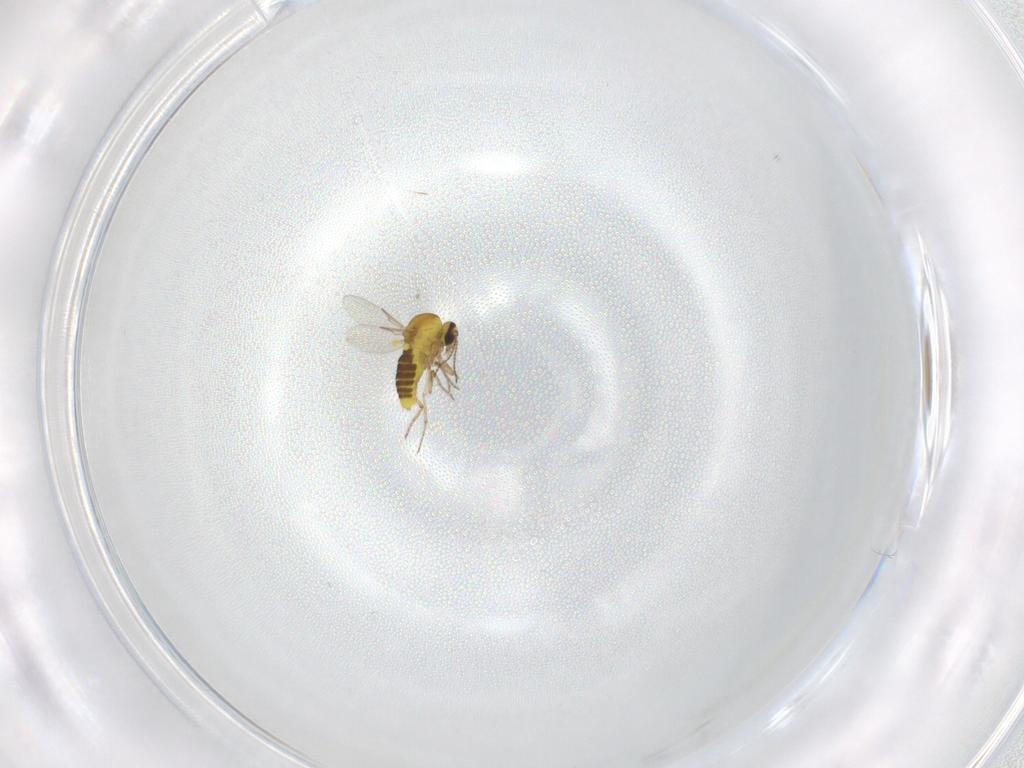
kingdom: Animalia
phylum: Arthropoda
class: Insecta
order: Diptera
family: Ceratopogonidae
